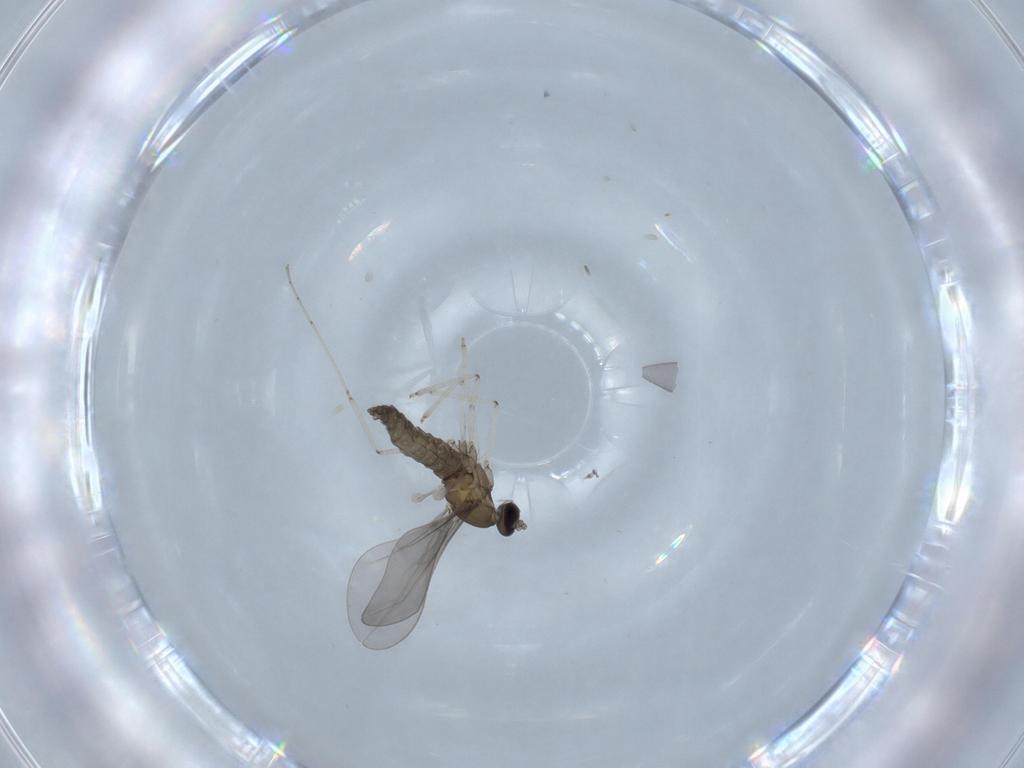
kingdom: Animalia
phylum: Arthropoda
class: Insecta
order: Diptera
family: Cecidomyiidae
